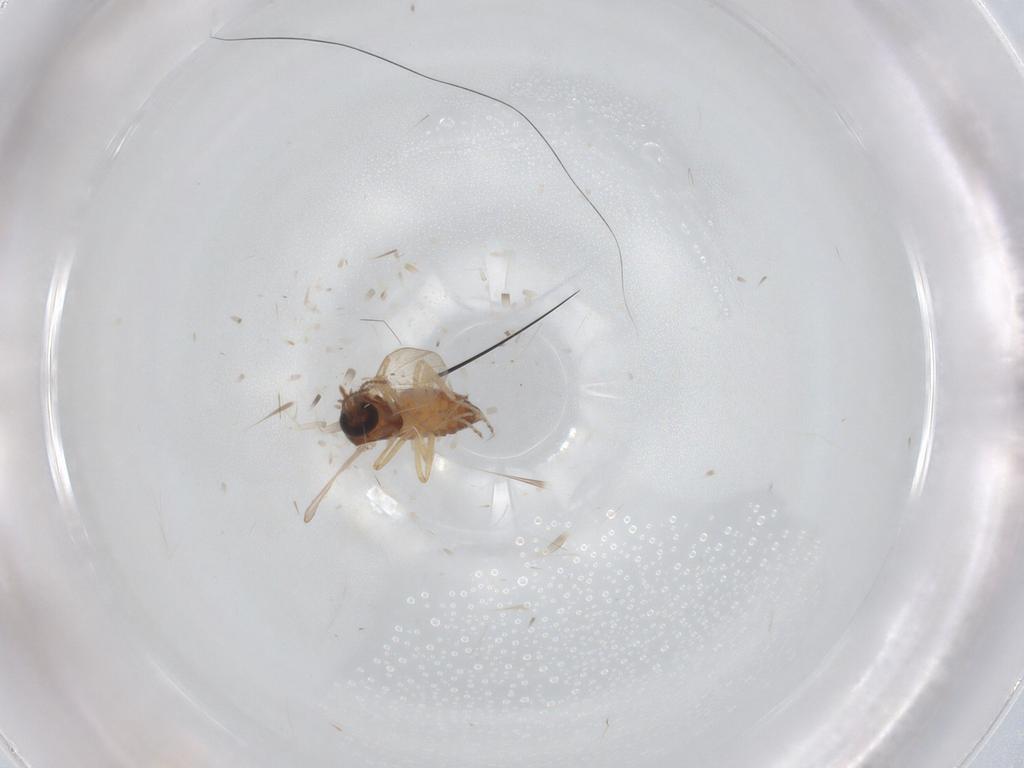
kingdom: Animalia
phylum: Arthropoda
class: Insecta
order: Diptera
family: Ceratopogonidae
